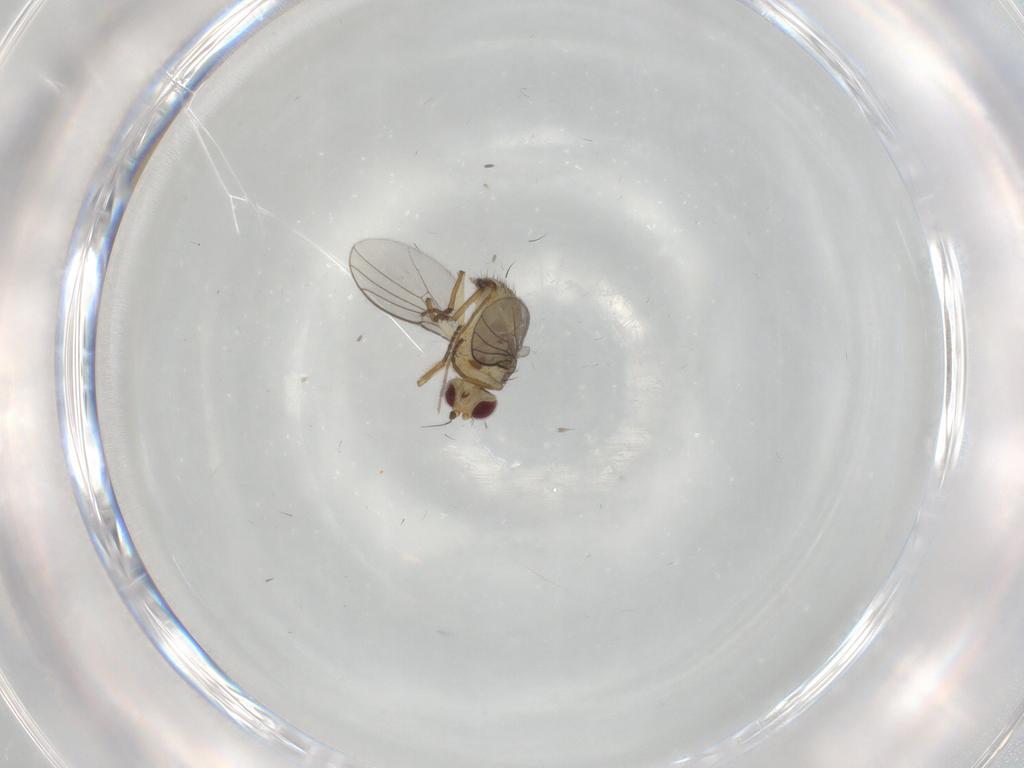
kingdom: Animalia
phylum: Arthropoda
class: Insecta
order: Diptera
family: Agromyzidae
